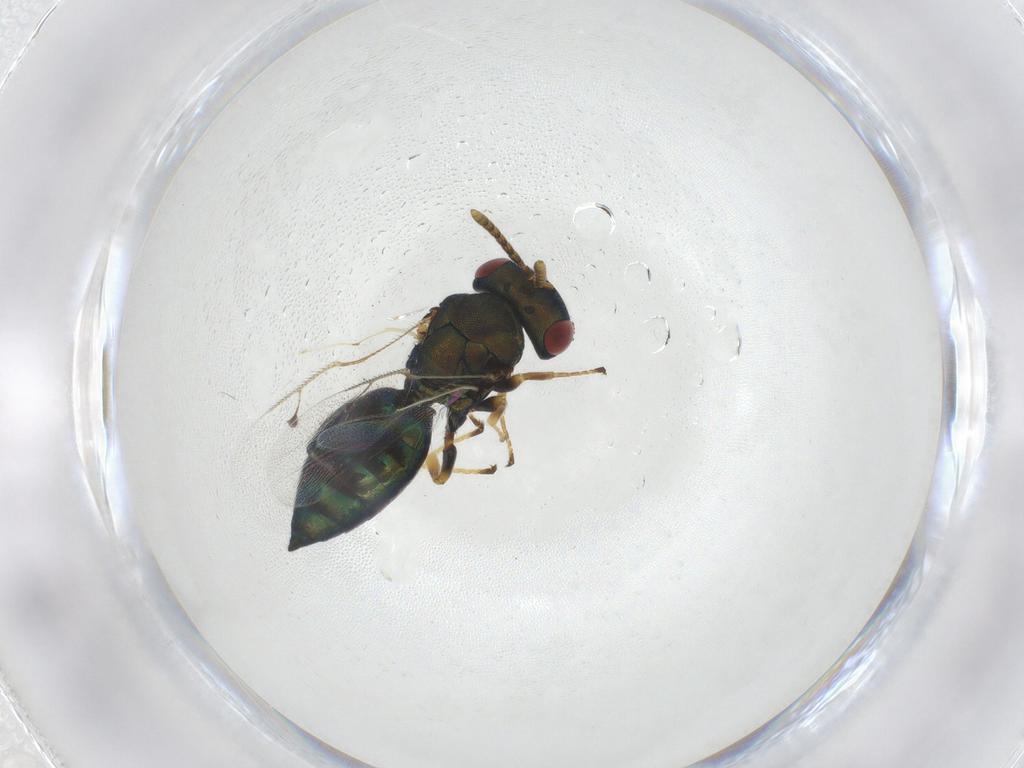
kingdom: Animalia
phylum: Arthropoda
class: Insecta
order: Hymenoptera
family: Pteromalidae
